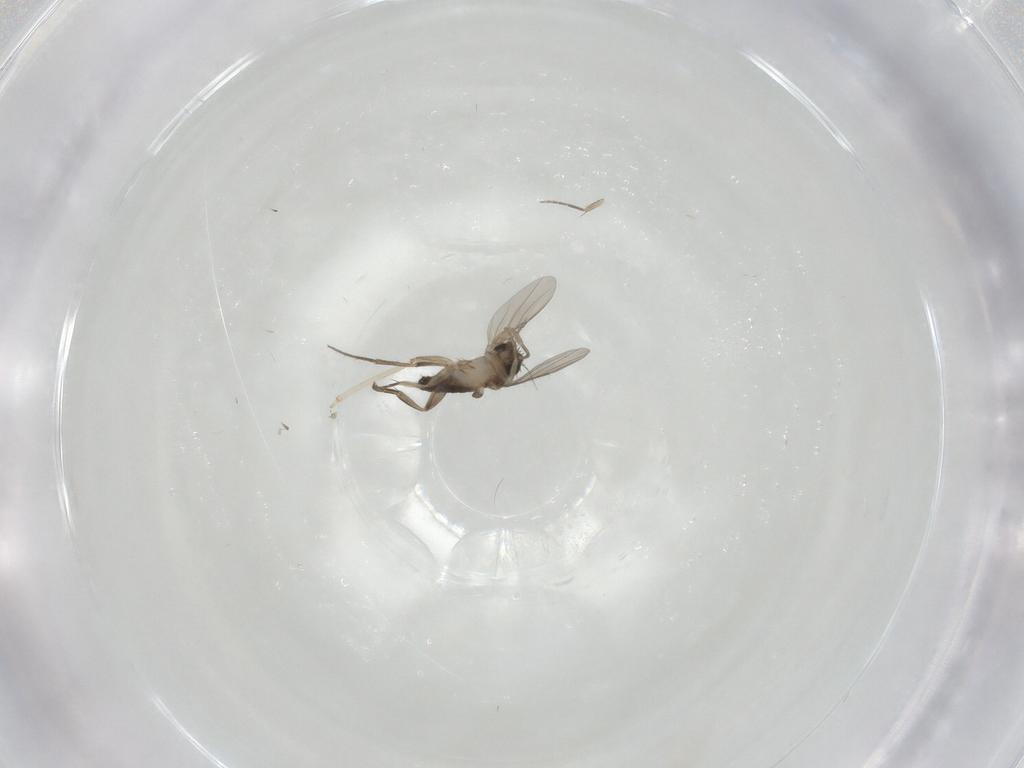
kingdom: Animalia
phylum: Arthropoda
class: Insecta
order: Diptera
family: Phoridae
